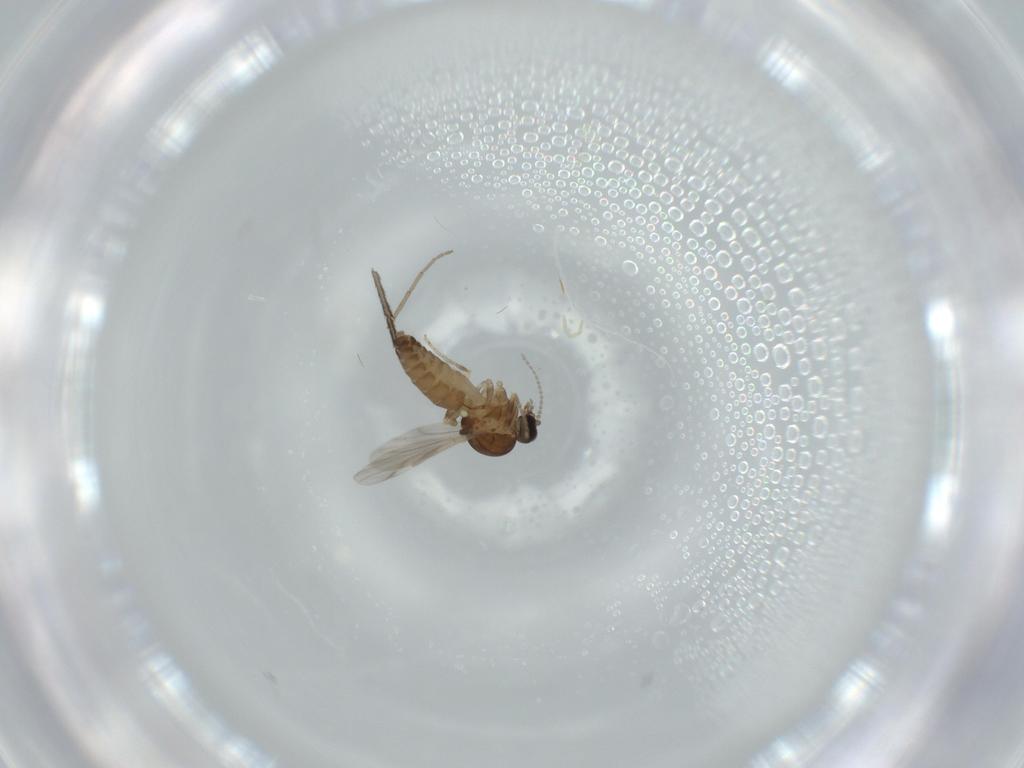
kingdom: Animalia
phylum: Arthropoda
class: Insecta
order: Diptera
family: Ceratopogonidae
